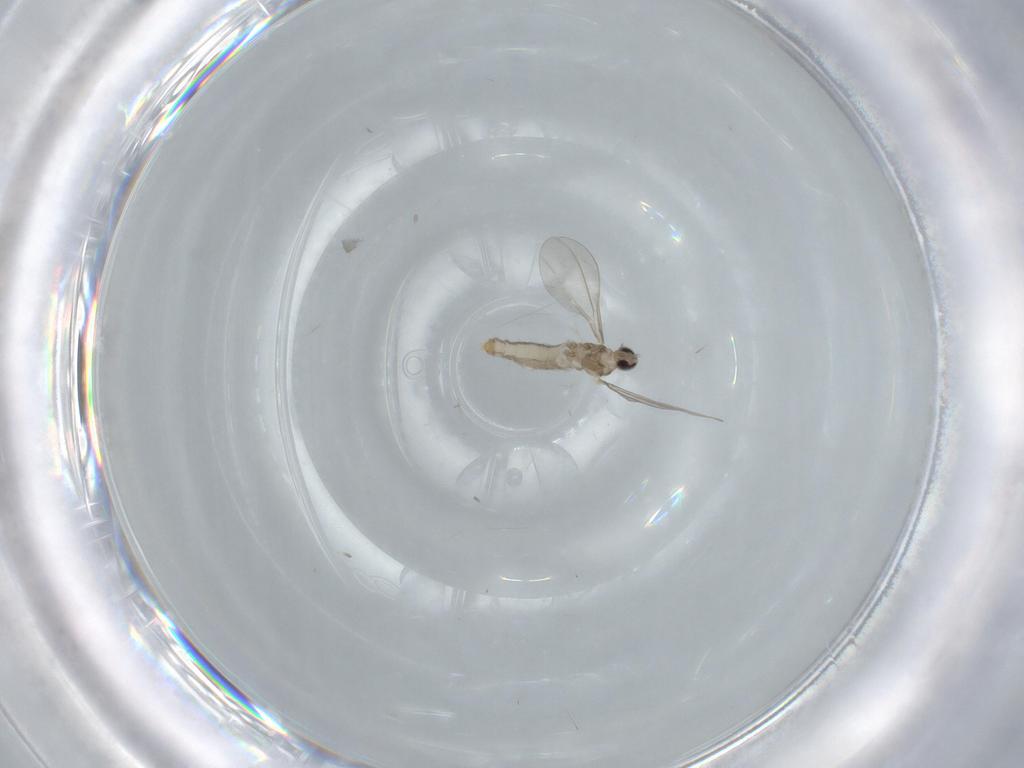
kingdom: Animalia
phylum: Arthropoda
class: Insecta
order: Diptera
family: Cecidomyiidae
